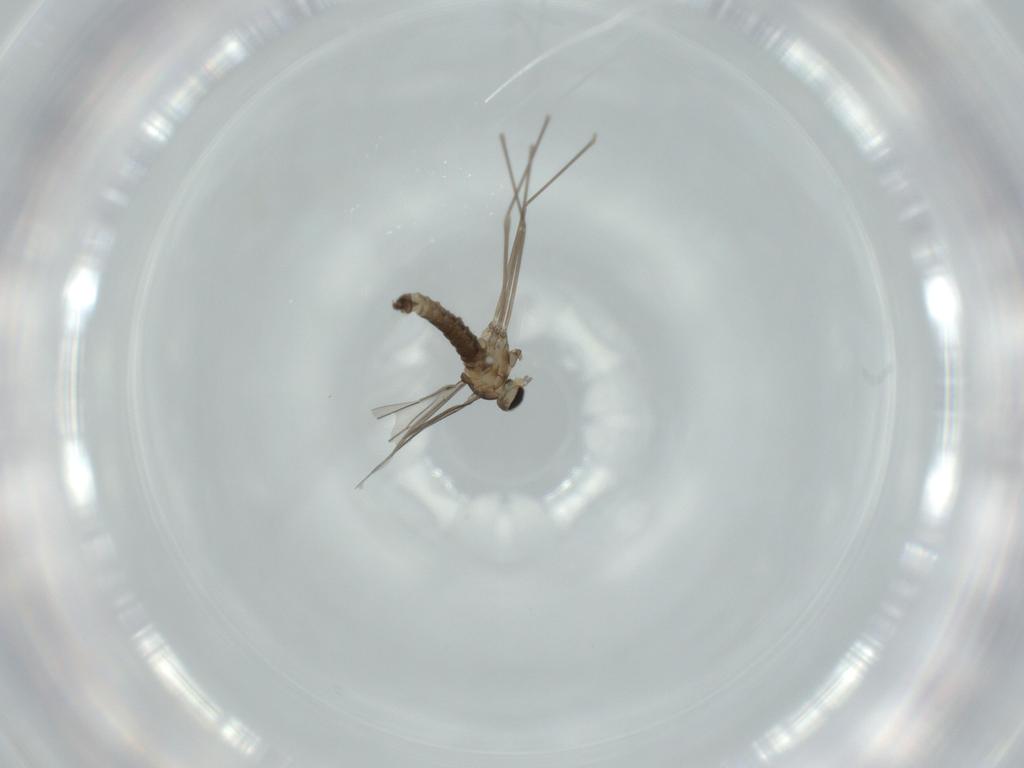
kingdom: Animalia
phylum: Arthropoda
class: Insecta
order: Diptera
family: Cecidomyiidae
